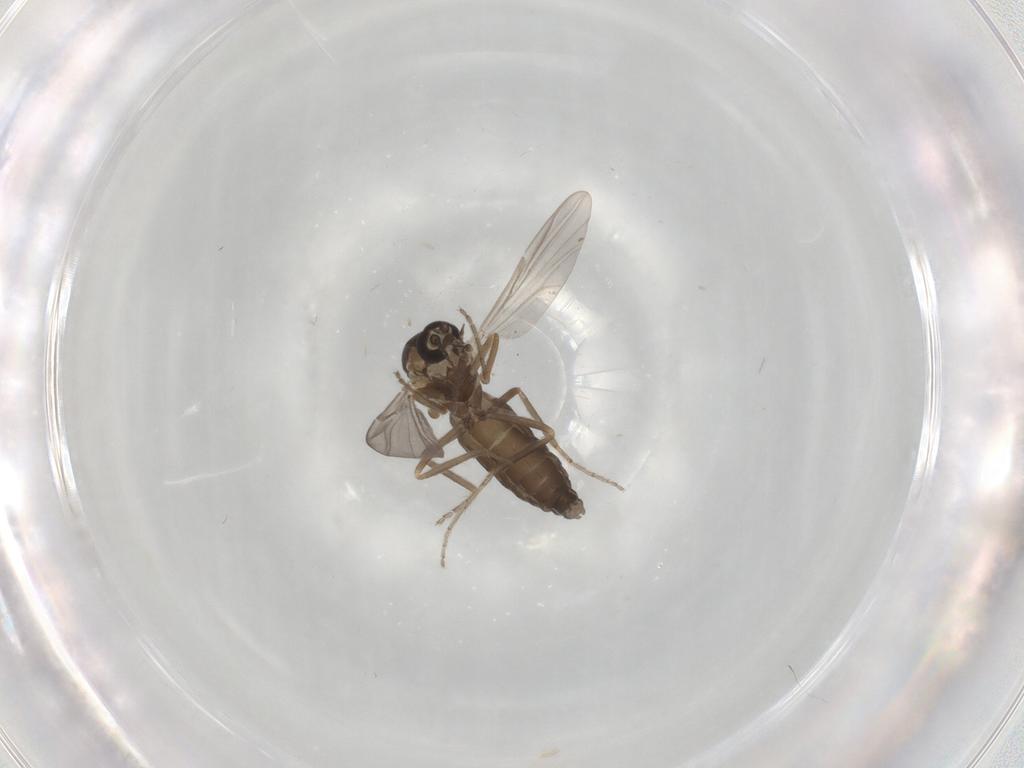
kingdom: Animalia
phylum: Arthropoda
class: Insecta
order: Diptera
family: Ceratopogonidae
